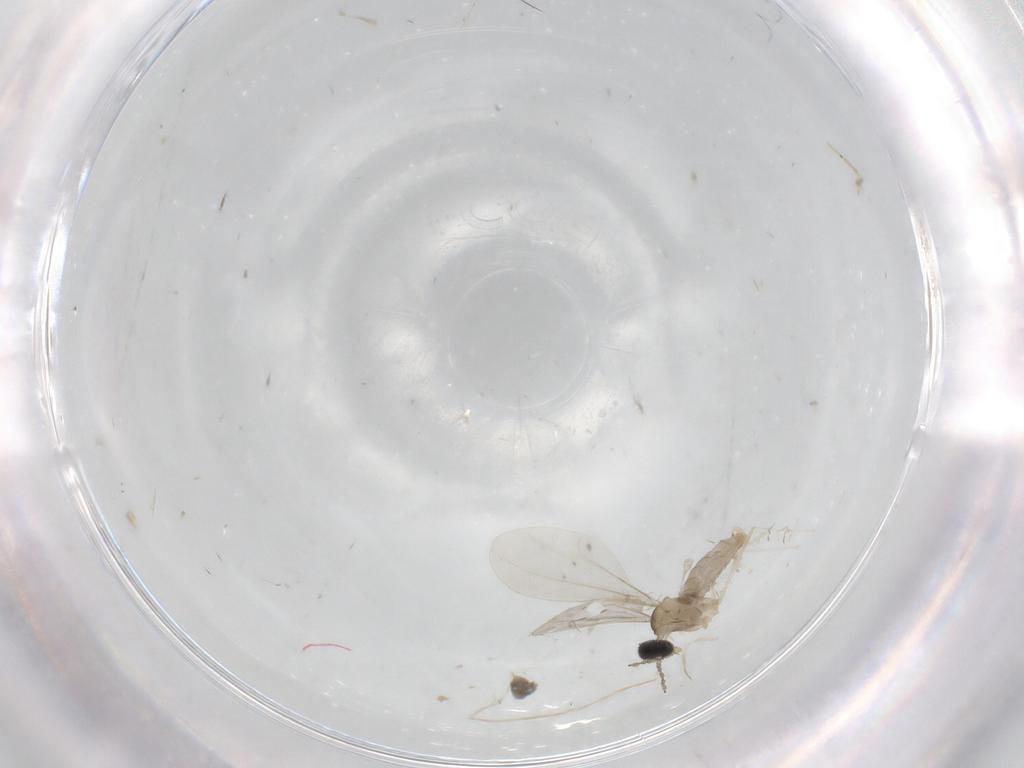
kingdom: Animalia
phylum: Arthropoda
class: Insecta
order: Diptera
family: Cecidomyiidae
